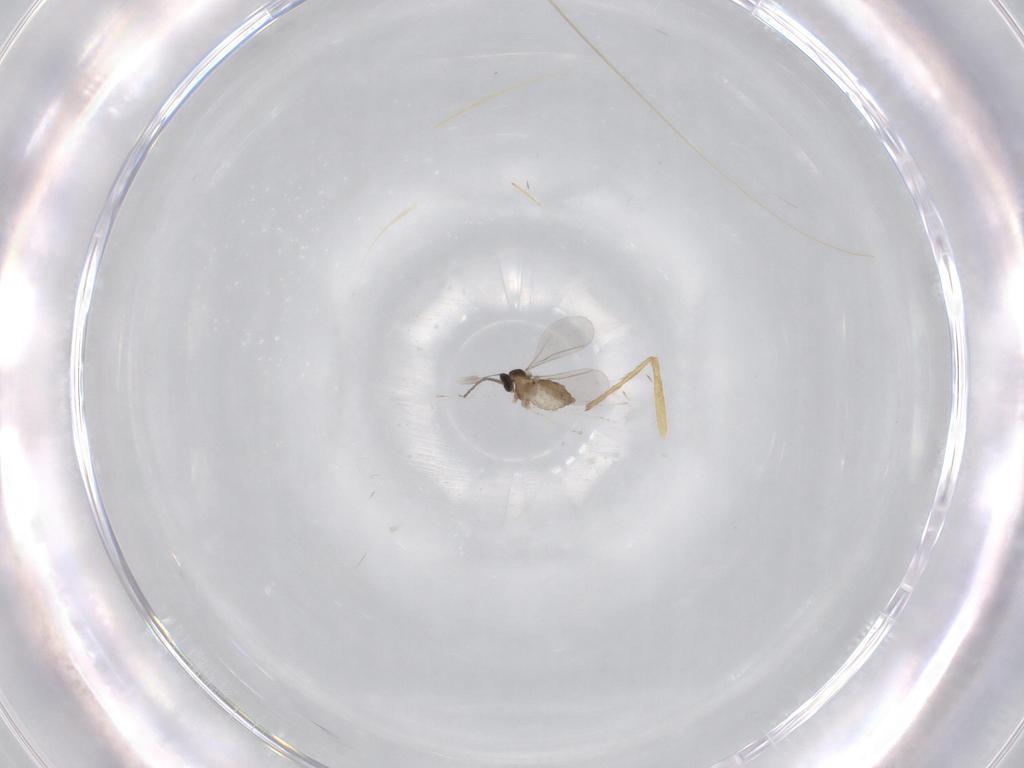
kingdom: Animalia
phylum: Arthropoda
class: Insecta
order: Diptera
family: Cecidomyiidae
